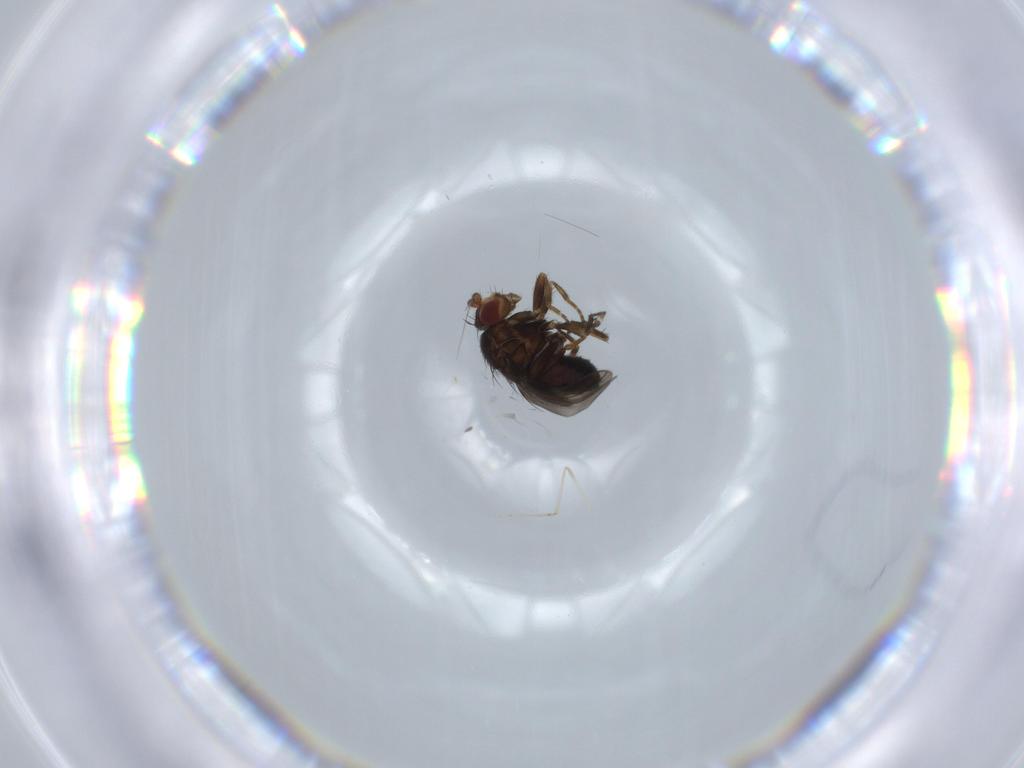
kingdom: Animalia
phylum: Arthropoda
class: Insecta
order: Diptera
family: Sphaeroceridae
